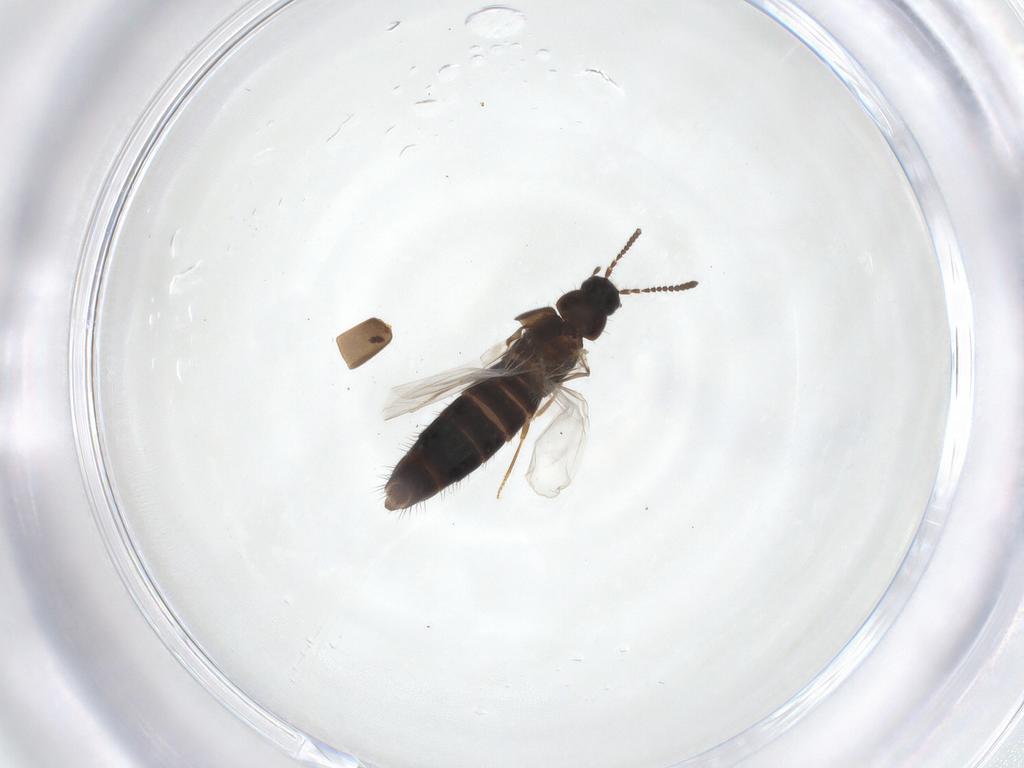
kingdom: Animalia
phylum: Arthropoda
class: Insecta
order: Coleoptera
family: Staphylinidae
